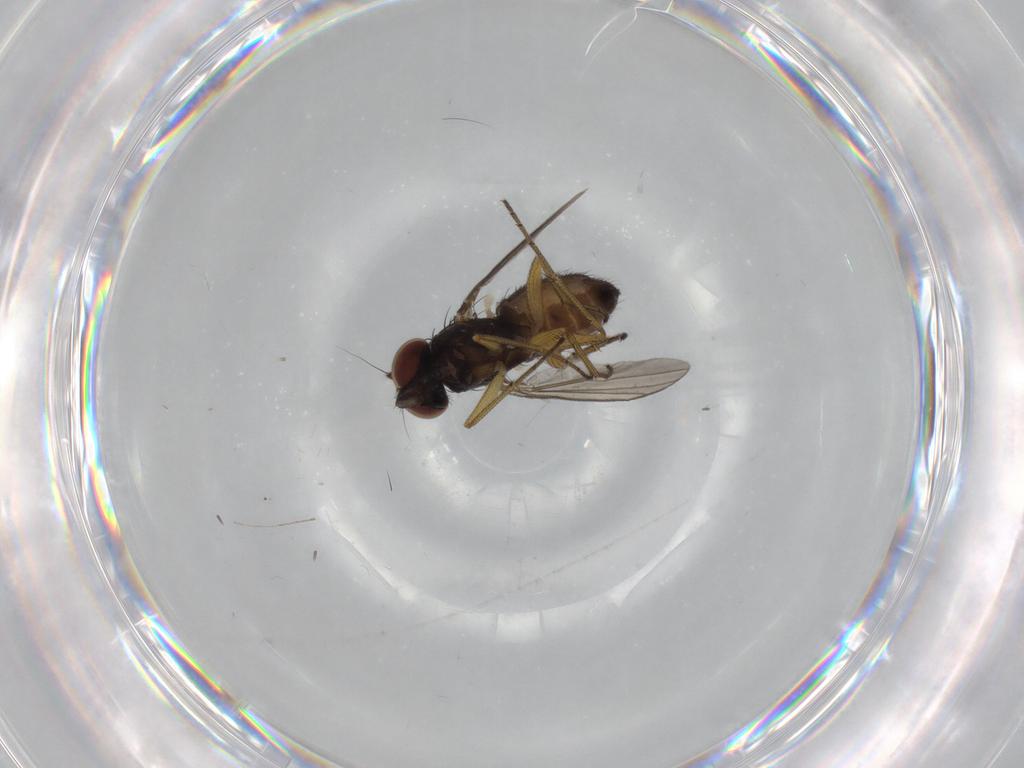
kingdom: Animalia
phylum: Arthropoda
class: Insecta
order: Diptera
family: Dolichopodidae
